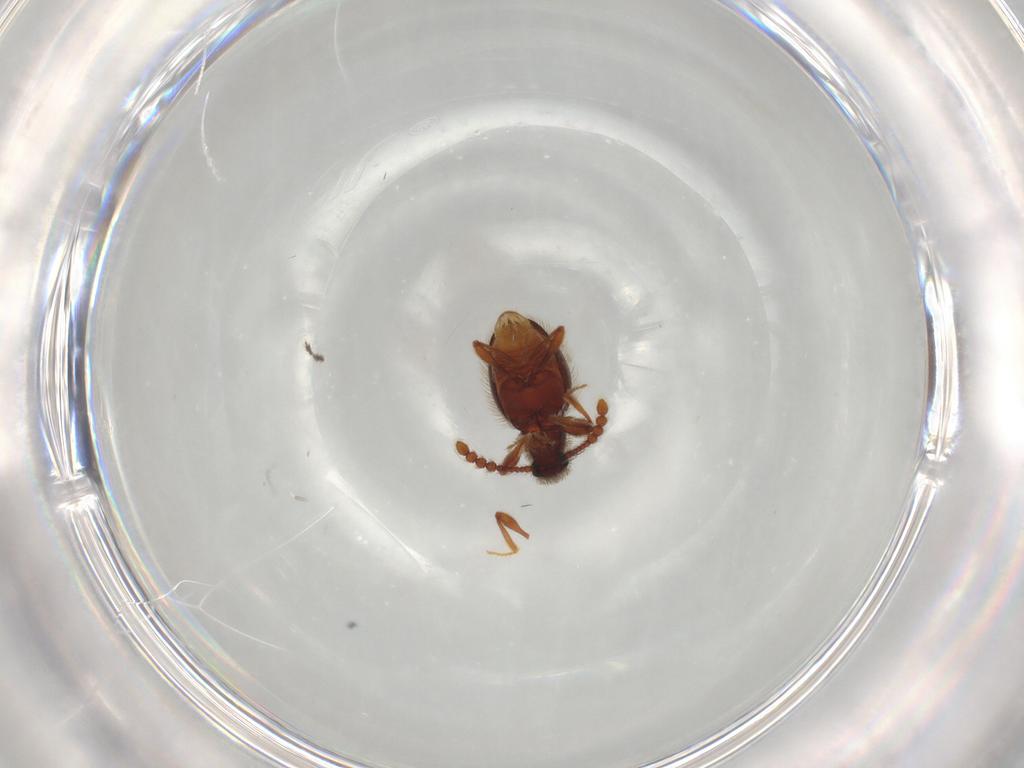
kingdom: Animalia
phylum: Arthropoda
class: Insecta
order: Coleoptera
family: Staphylinidae
